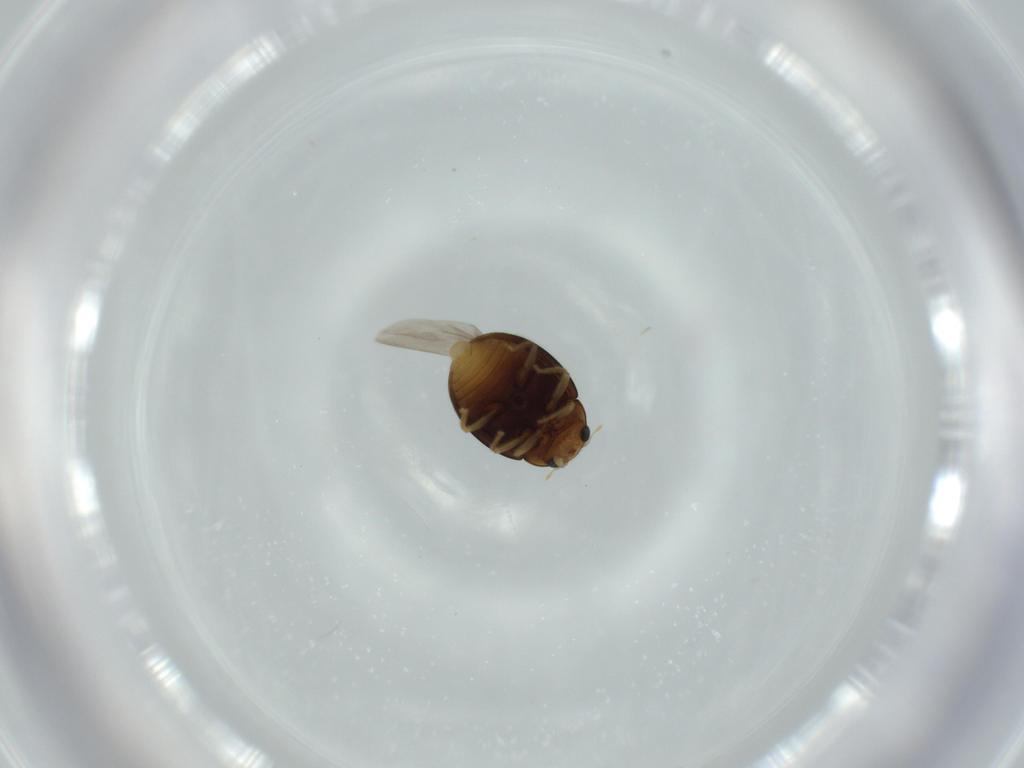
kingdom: Animalia
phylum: Arthropoda
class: Insecta
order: Coleoptera
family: Coccinellidae
